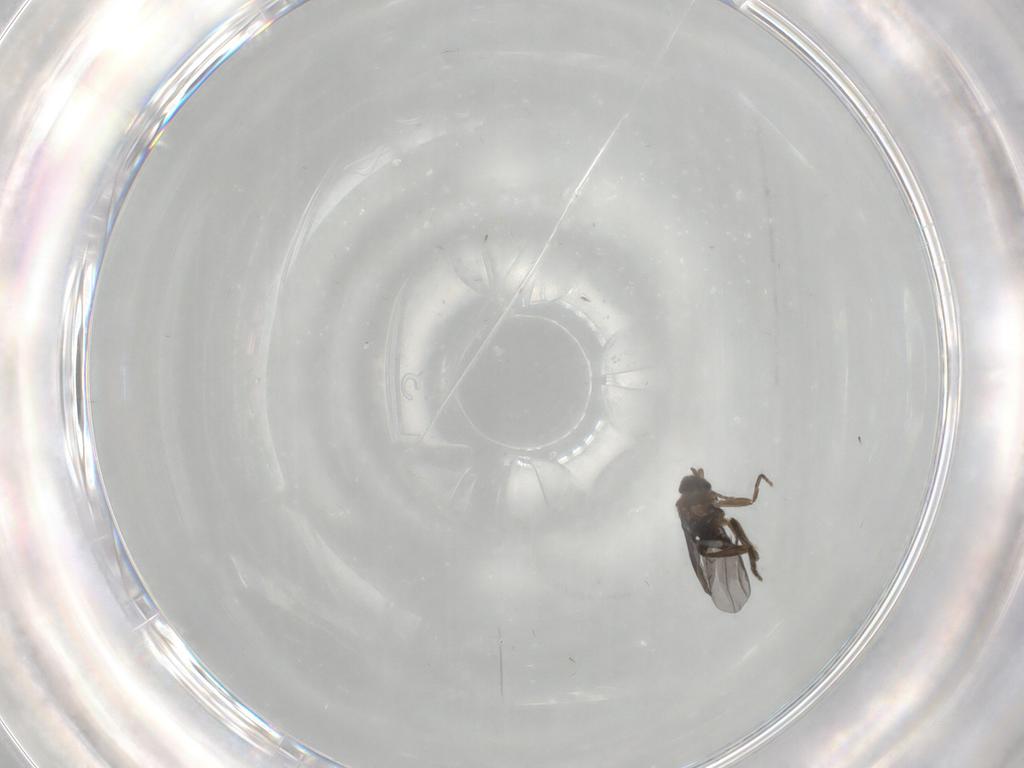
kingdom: Animalia
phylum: Arthropoda
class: Insecta
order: Diptera
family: Phoridae
